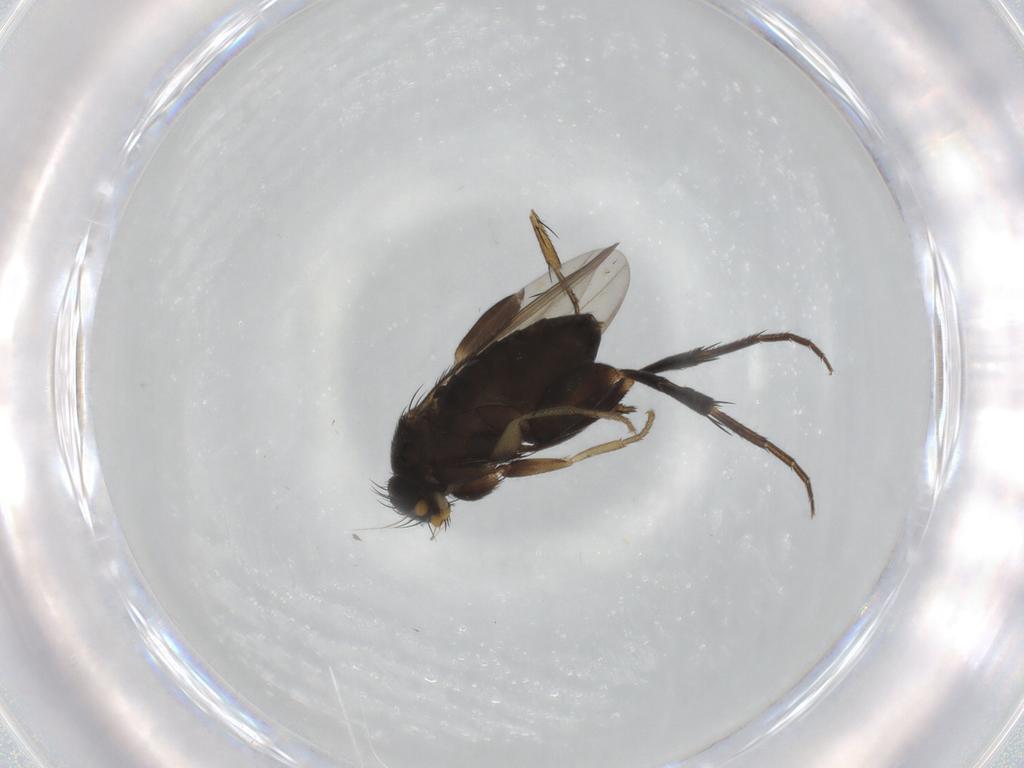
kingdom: Animalia
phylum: Arthropoda
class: Insecta
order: Diptera
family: Phoridae
